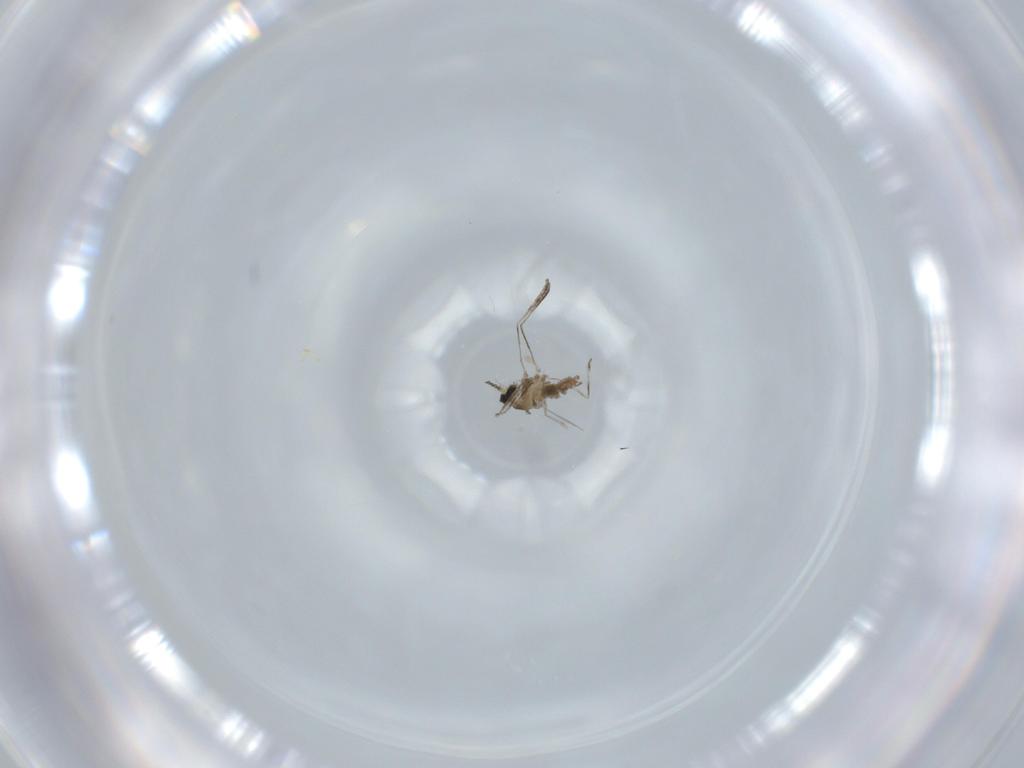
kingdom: Animalia
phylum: Arthropoda
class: Insecta
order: Diptera
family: Cecidomyiidae
